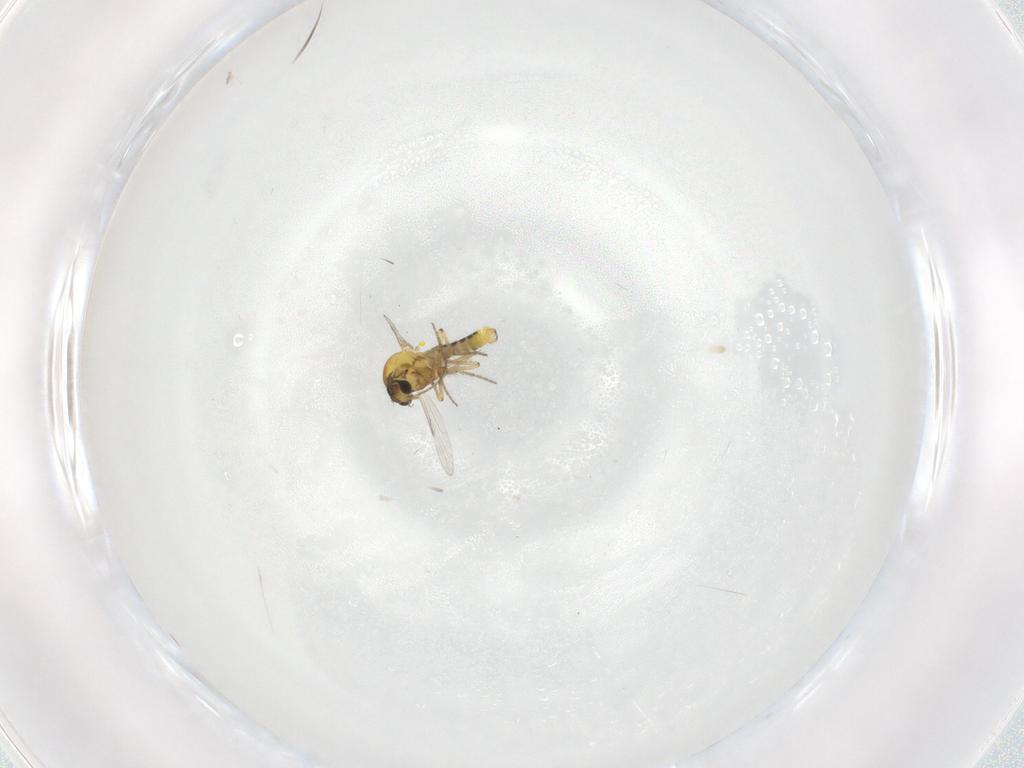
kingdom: Animalia
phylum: Arthropoda
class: Insecta
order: Diptera
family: Ceratopogonidae
